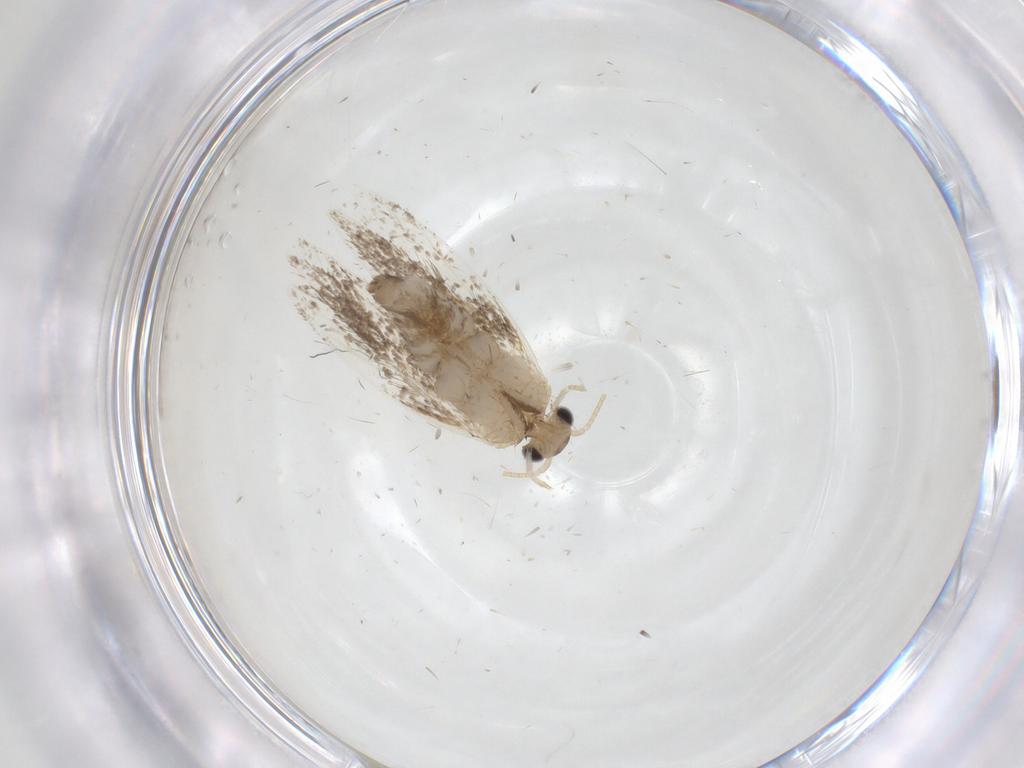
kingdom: Animalia
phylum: Arthropoda
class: Insecta
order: Lepidoptera
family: Dryadaulidae
